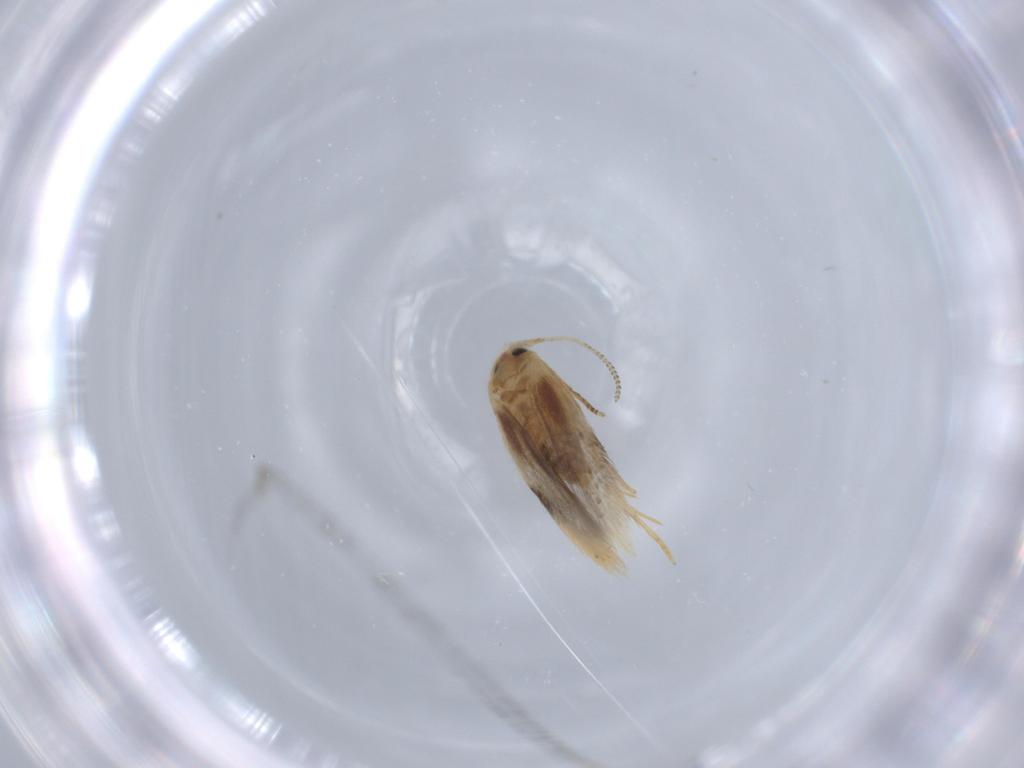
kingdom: Animalia
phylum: Arthropoda
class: Insecta
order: Lepidoptera
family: Nepticulidae
